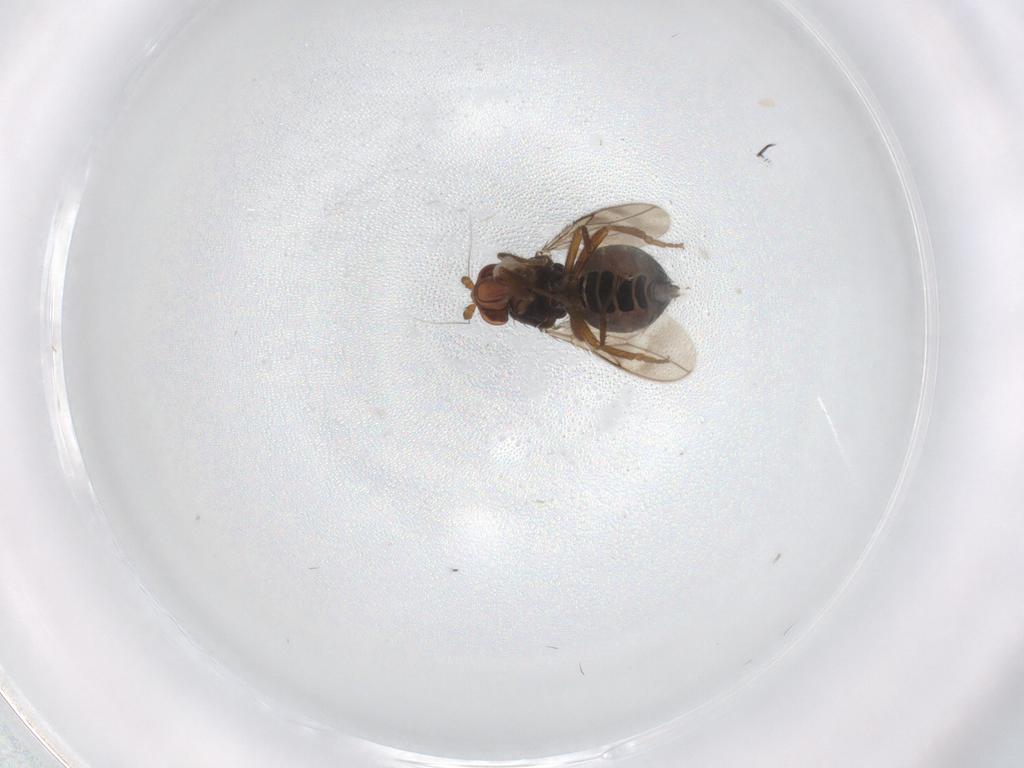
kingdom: Animalia
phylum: Arthropoda
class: Insecta
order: Diptera
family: Sphaeroceridae
